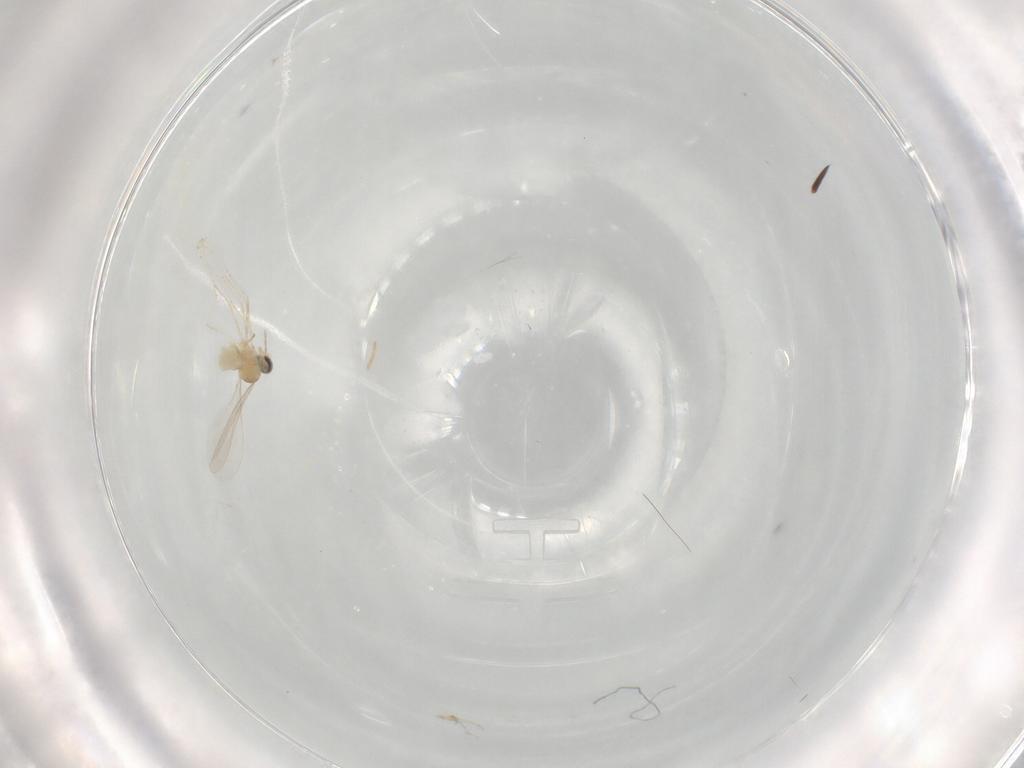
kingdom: Animalia
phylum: Arthropoda
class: Insecta
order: Diptera
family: Cecidomyiidae
